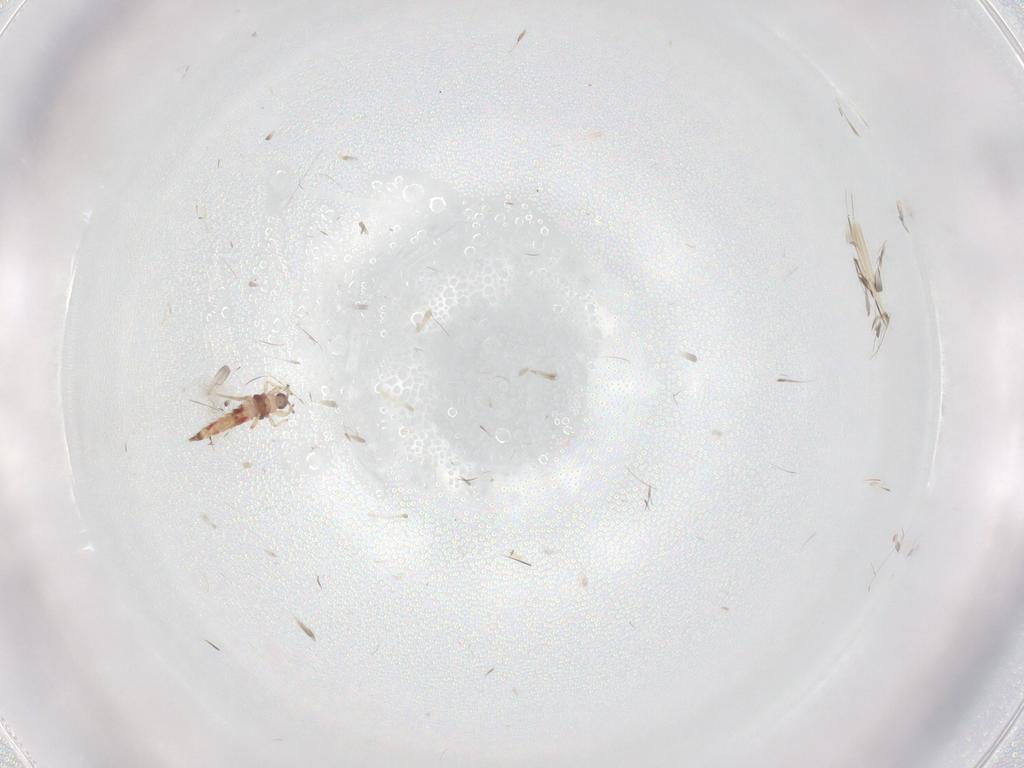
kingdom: Animalia
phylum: Arthropoda
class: Insecta
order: Thysanoptera
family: Phlaeothripidae
